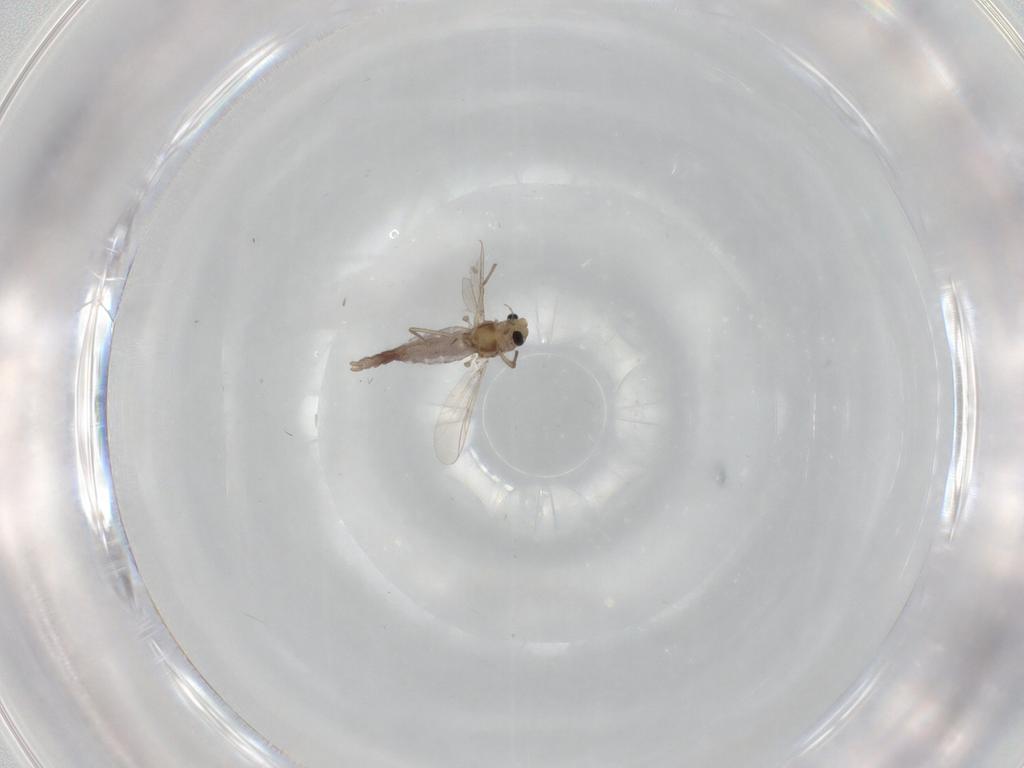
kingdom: Animalia
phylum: Arthropoda
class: Insecta
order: Diptera
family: Chironomidae
